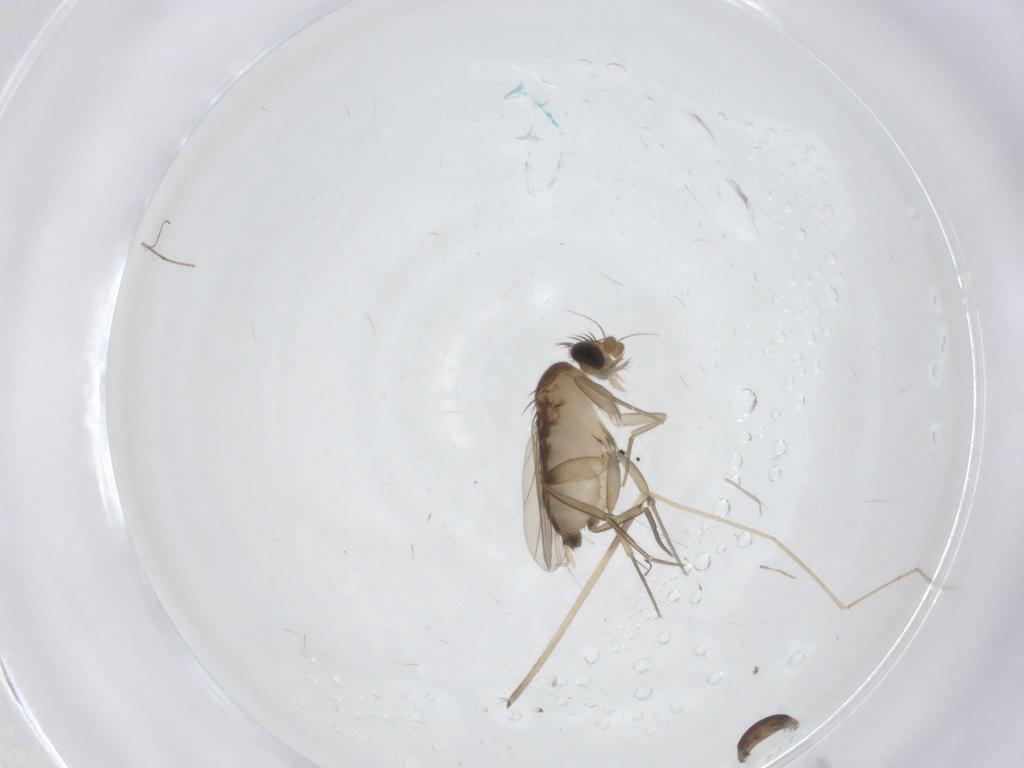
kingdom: Animalia
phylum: Arthropoda
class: Insecta
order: Diptera
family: Phoridae
